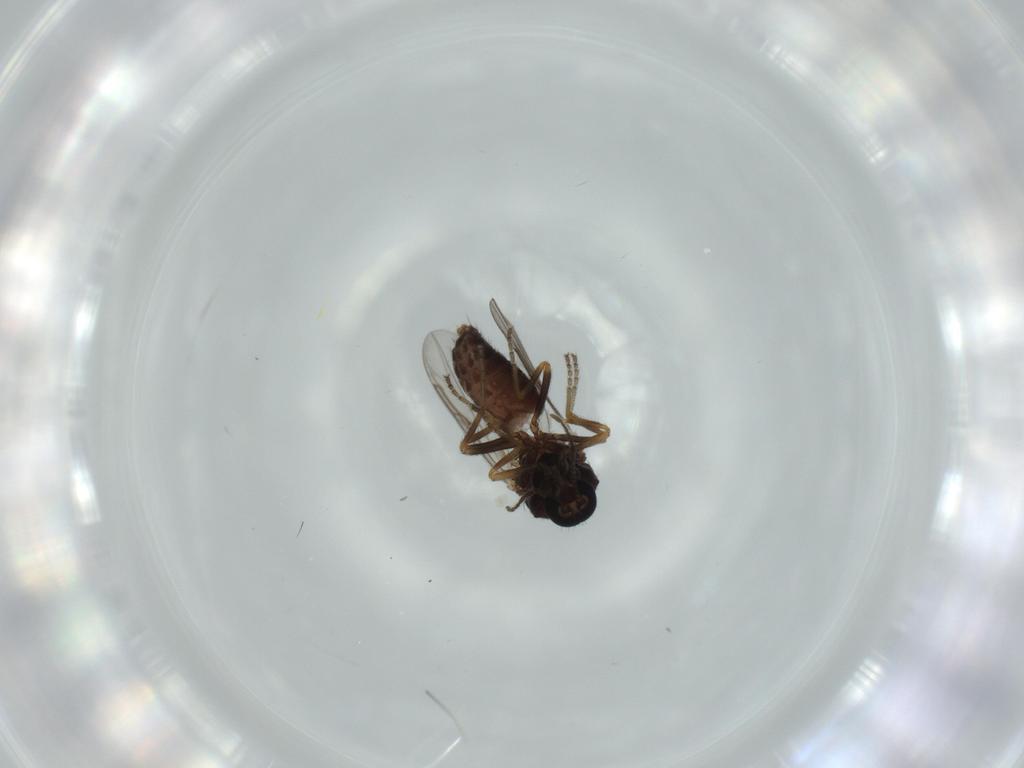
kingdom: Animalia
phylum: Arthropoda
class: Insecta
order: Diptera
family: Ceratopogonidae
